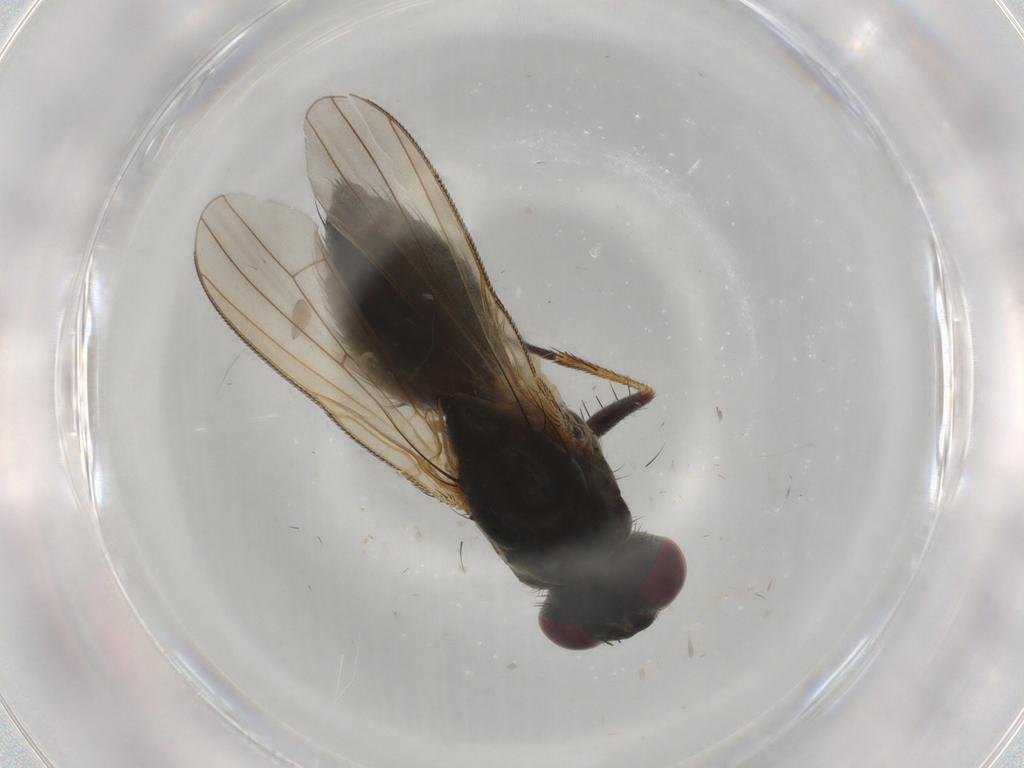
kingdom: Animalia
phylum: Arthropoda
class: Insecta
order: Diptera
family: Muscidae
